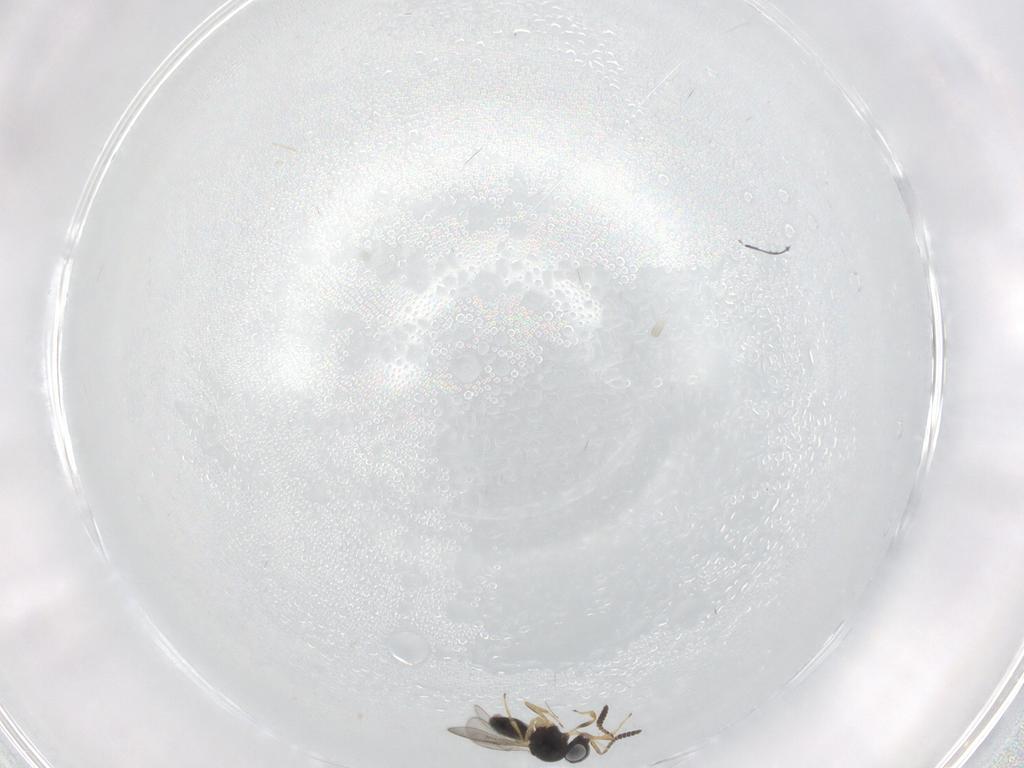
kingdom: Animalia
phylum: Arthropoda
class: Insecta
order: Hymenoptera
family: Scelionidae
